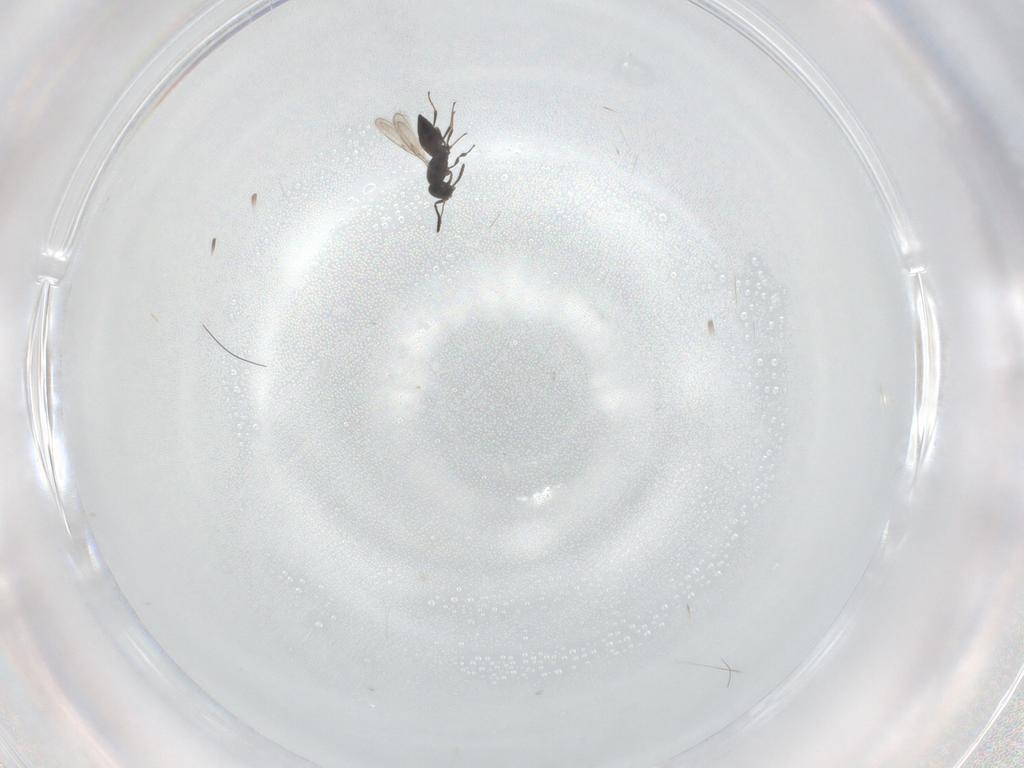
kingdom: Animalia
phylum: Arthropoda
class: Insecta
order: Hymenoptera
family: Scelionidae
